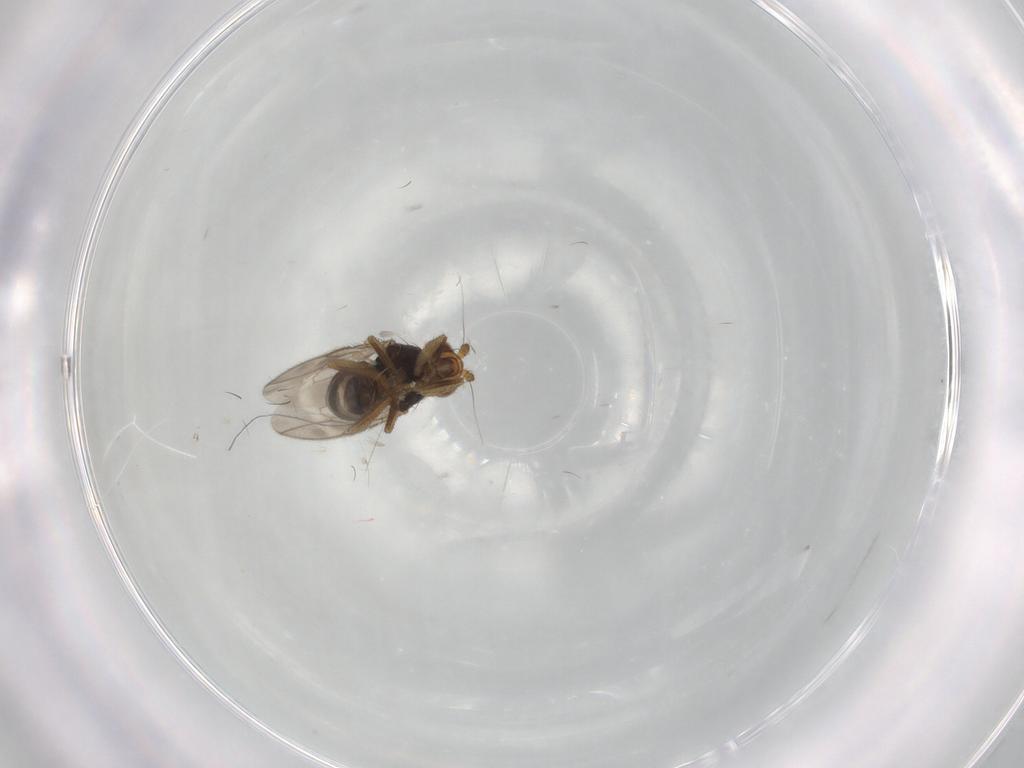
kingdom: Animalia
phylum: Arthropoda
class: Insecta
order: Diptera
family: Sphaeroceridae
